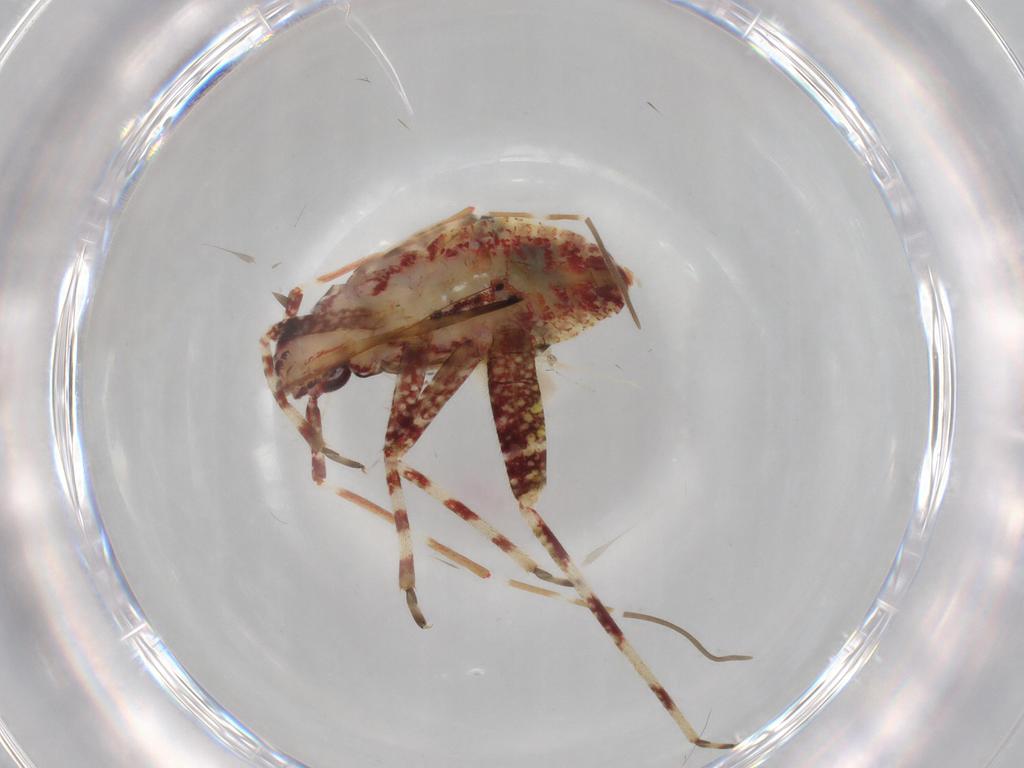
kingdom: Animalia
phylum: Arthropoda
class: Insecta
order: Hemiptera
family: Miridae
